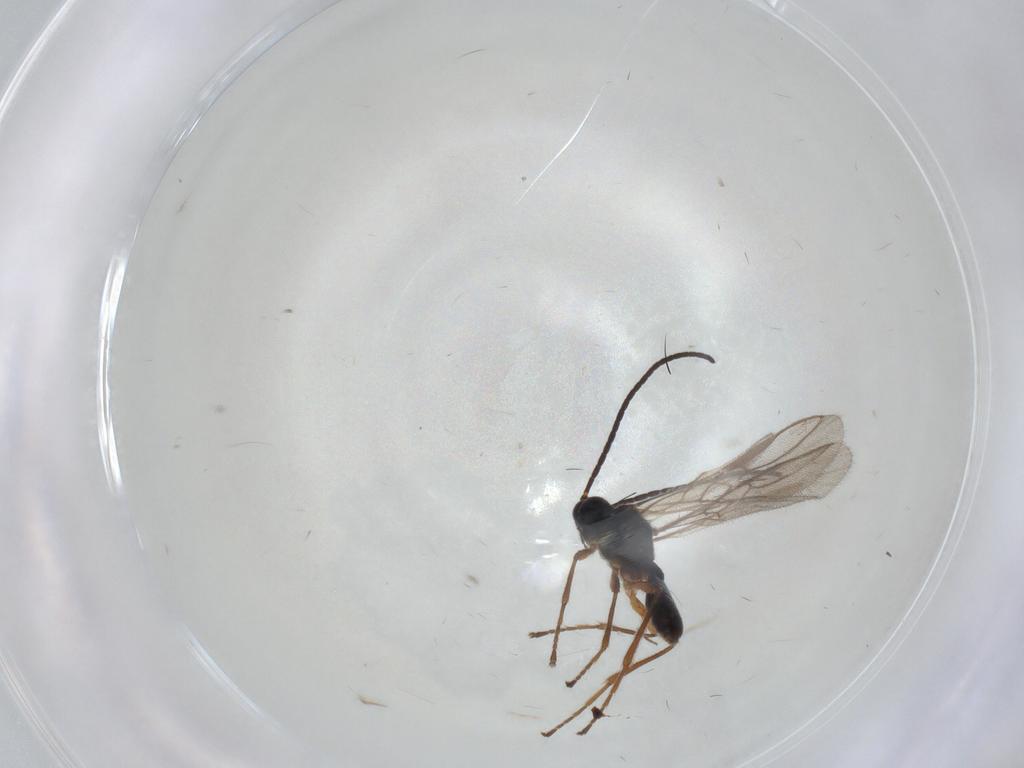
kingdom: Animalia
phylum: Arthropoda
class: Insecta
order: Hymenoptera
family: Braconidae
